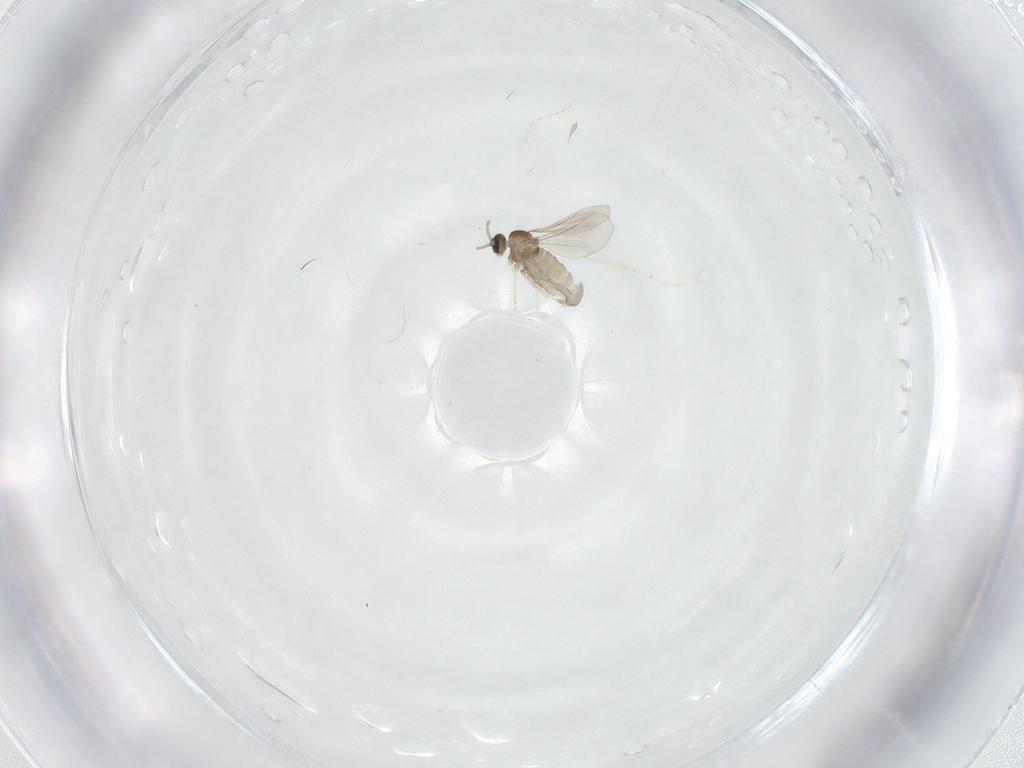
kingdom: Animalia
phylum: Arthropoda
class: Insecta
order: Diptera
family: Cecidomyiidae
